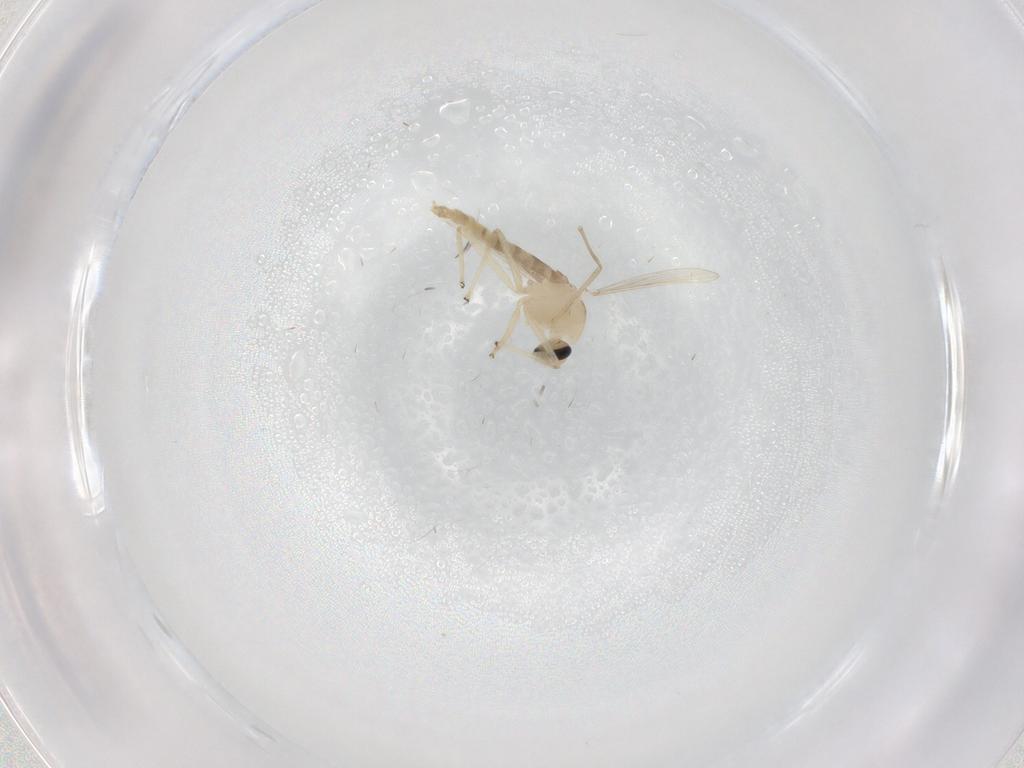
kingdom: Animalia
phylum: Arthropoda
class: Insecta
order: Diptera
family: Chironomidae
